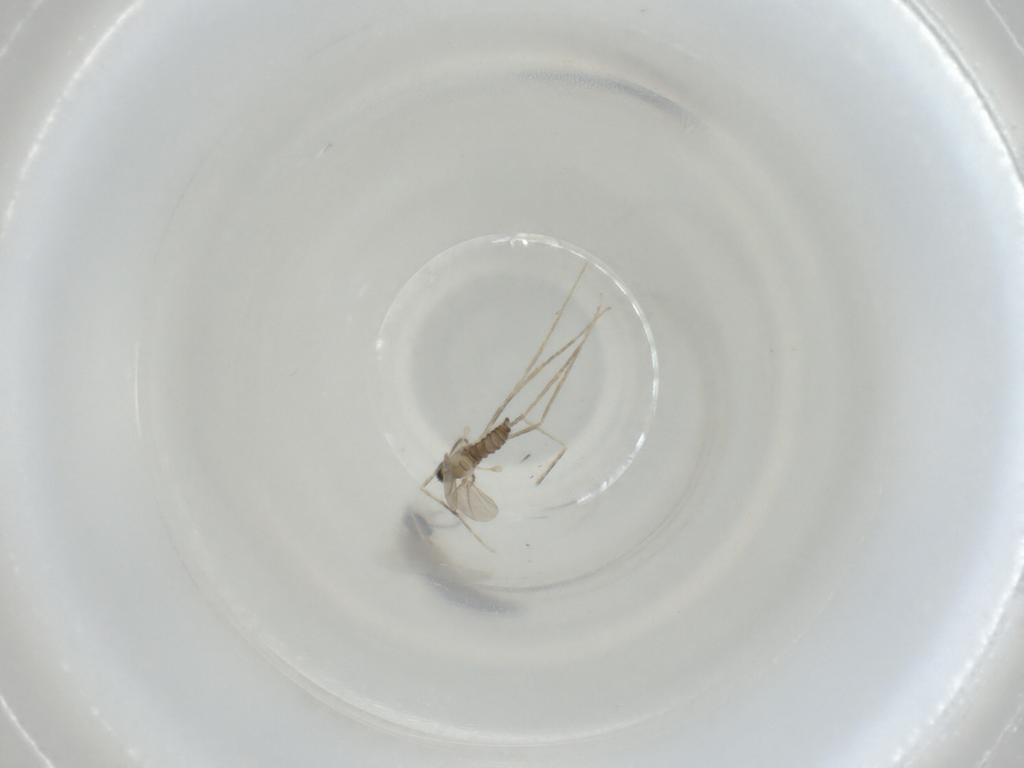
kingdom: Animalia
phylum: Arthropoda
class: Insecta
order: Diptera
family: Cecidomyiidae
